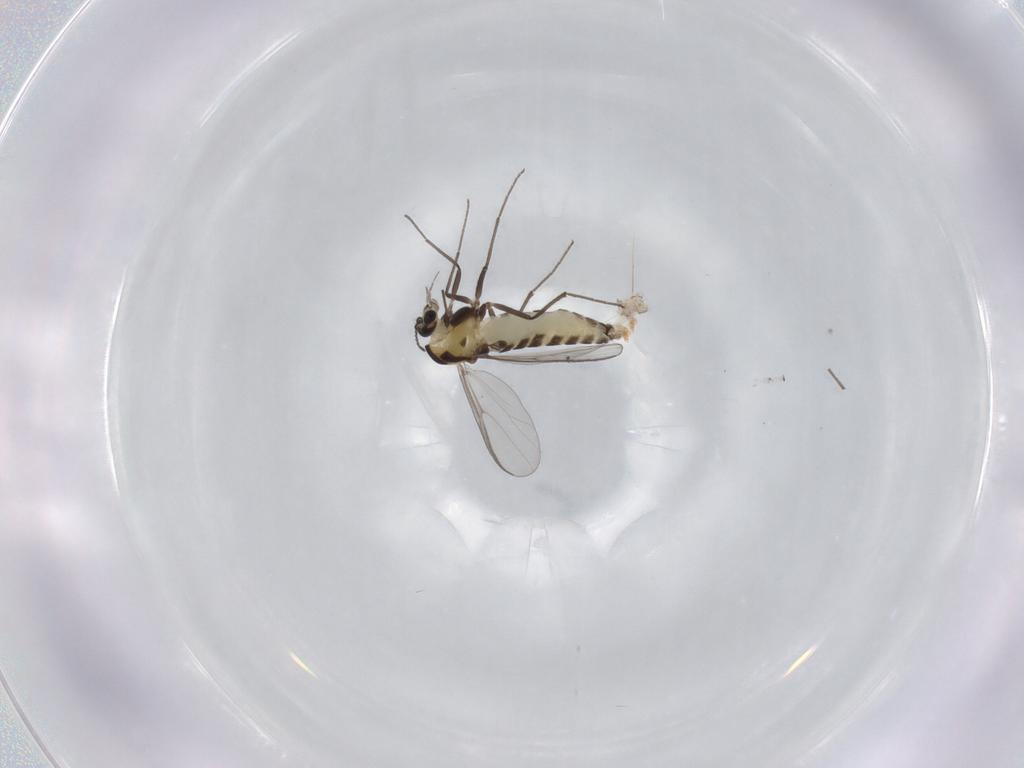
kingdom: Animalia
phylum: Arthropoda
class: Insecta
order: Diptera
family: Chironomidae
